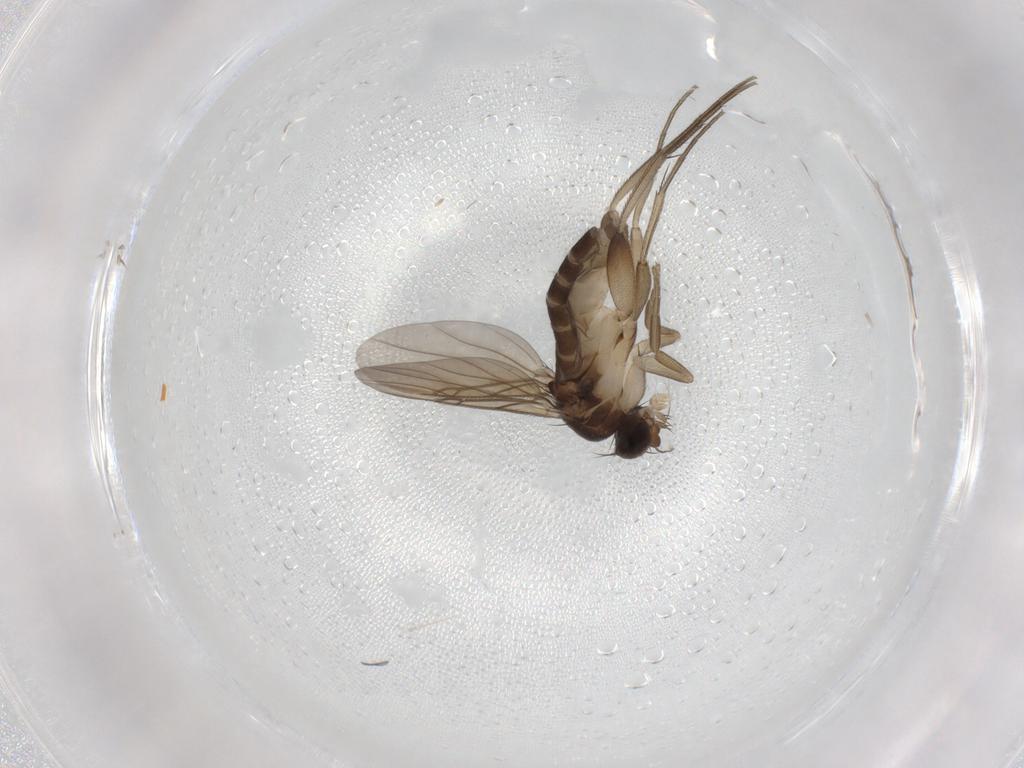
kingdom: Animalia
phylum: Arthropoda
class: Insecta
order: Diptera
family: Phoridae
